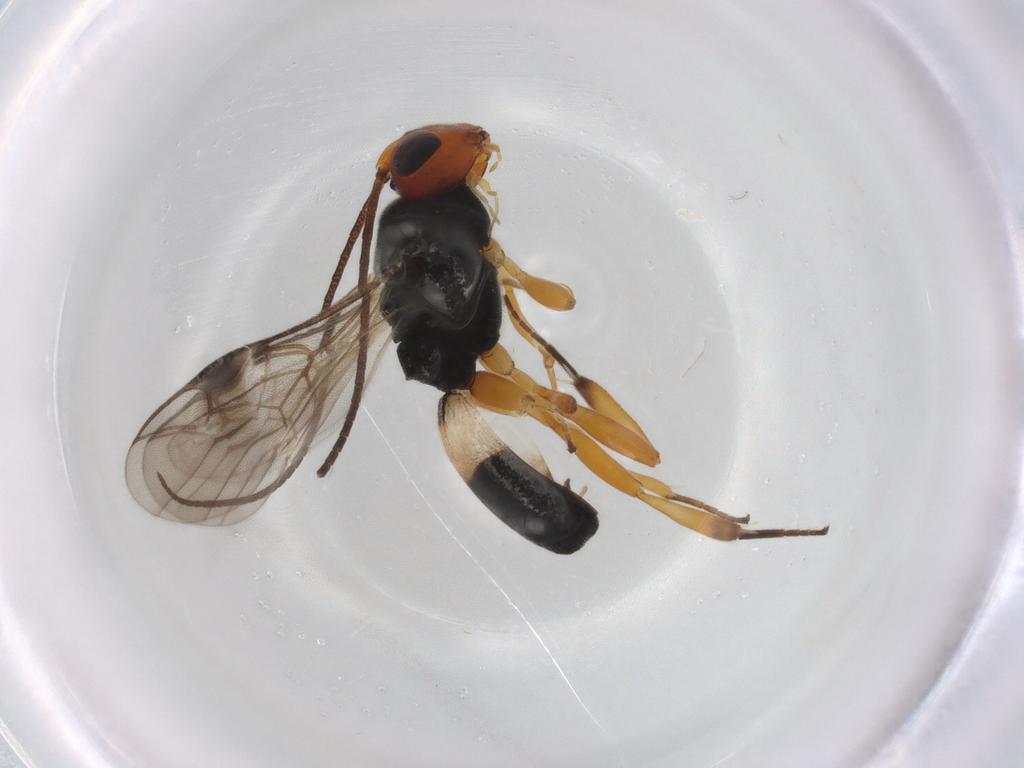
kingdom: Animalia
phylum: Arthropoda
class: Insecta
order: Hymenoptera
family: Braconidae
